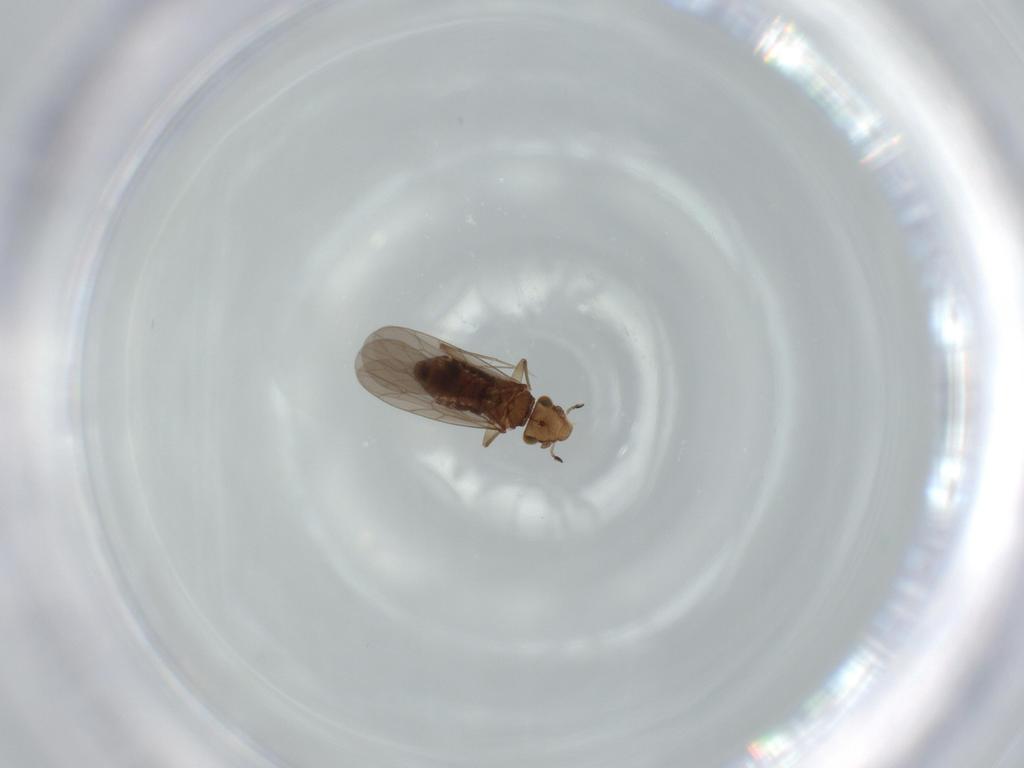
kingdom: Animalia
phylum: Arthropoda
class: Insecta
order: Psocodea
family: Lepidopsocidae
